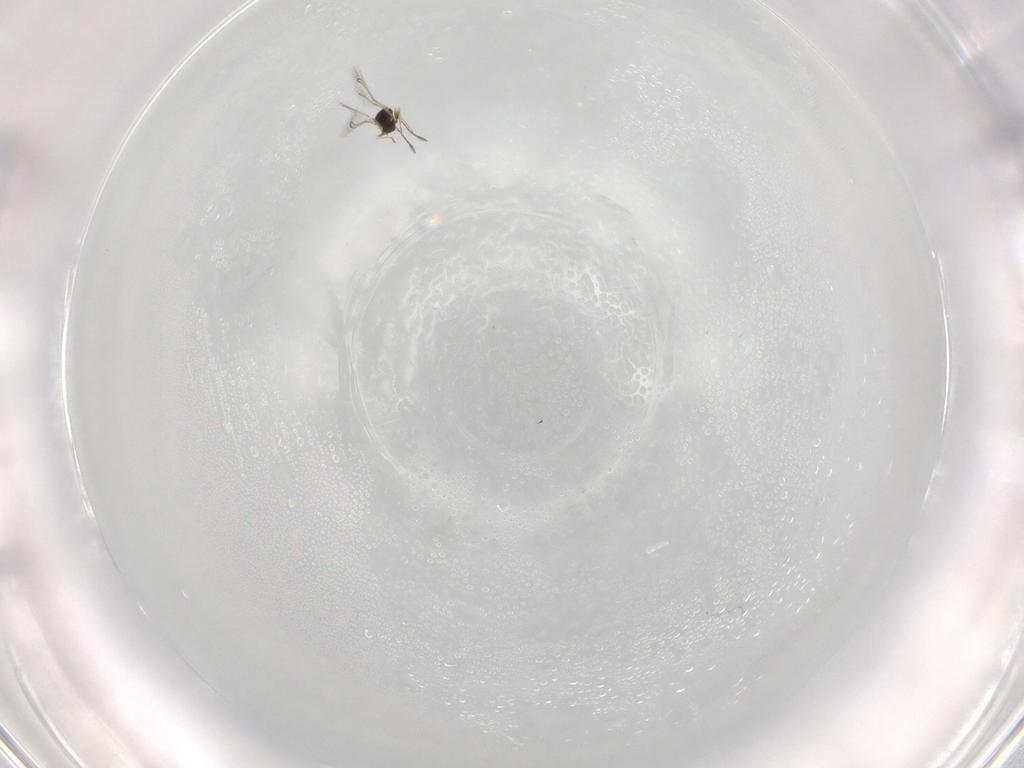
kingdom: Animalia
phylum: Arthropoda
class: Insecta
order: Hymenoptera
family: Mymaridae
